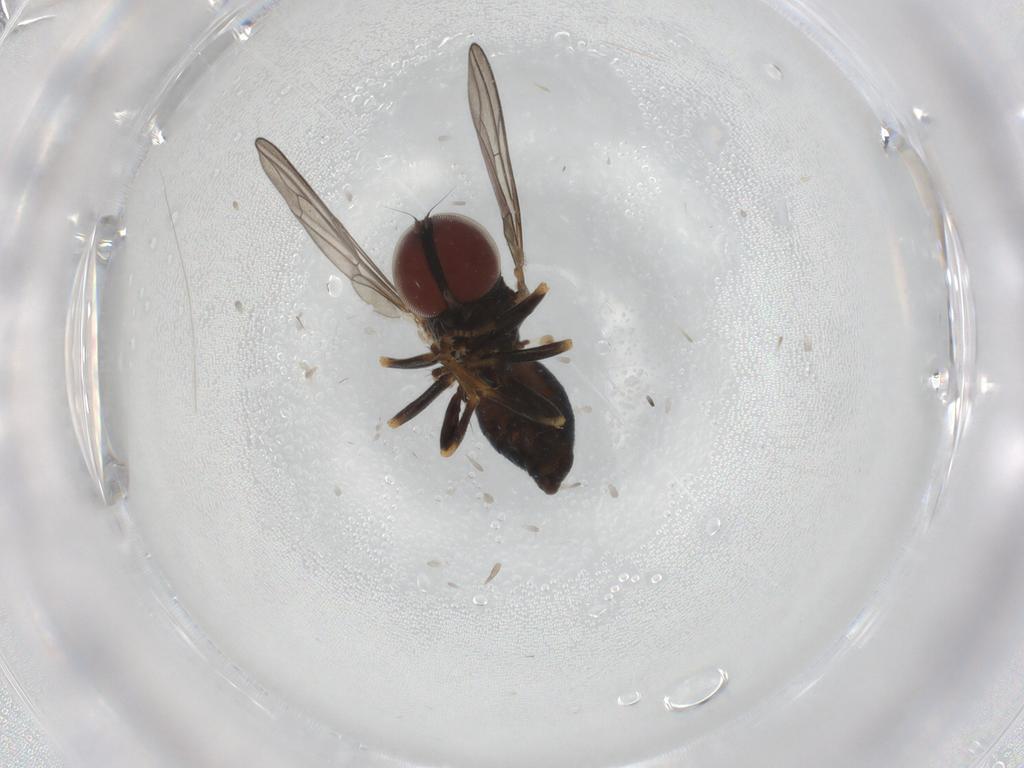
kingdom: Animalia
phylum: Arthropoda
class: Insecta
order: Diptera
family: Pipunculidae
